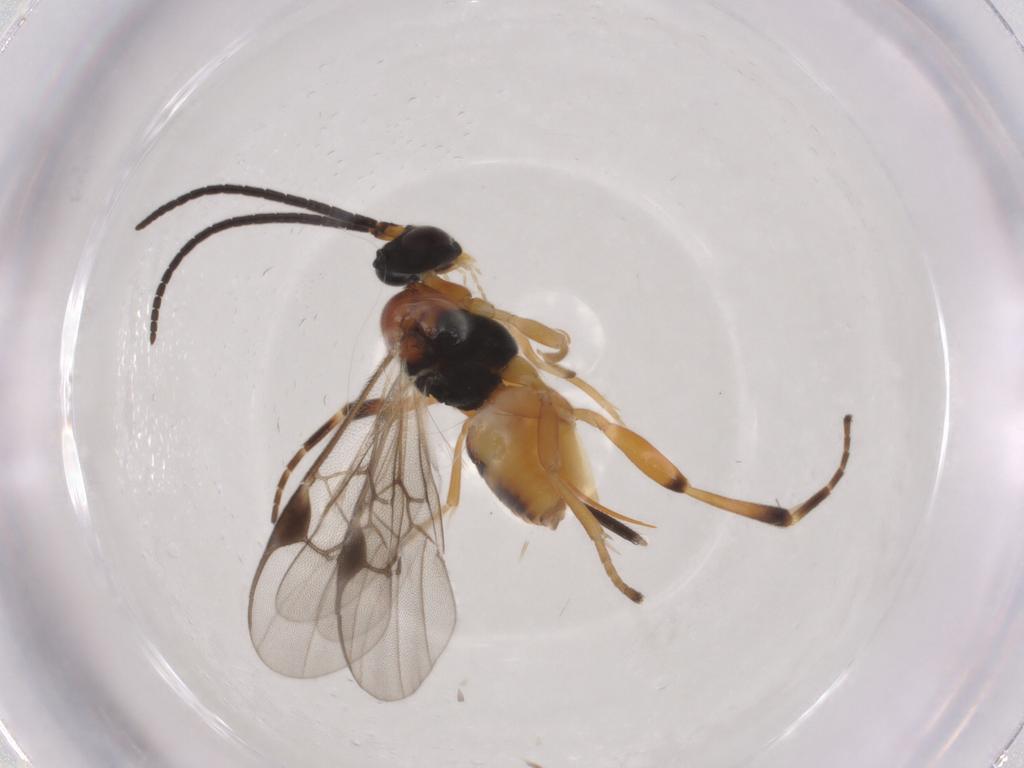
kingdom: Animalia
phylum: Arthropoda
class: Insecta
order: Hymenoptera
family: Braconidae
